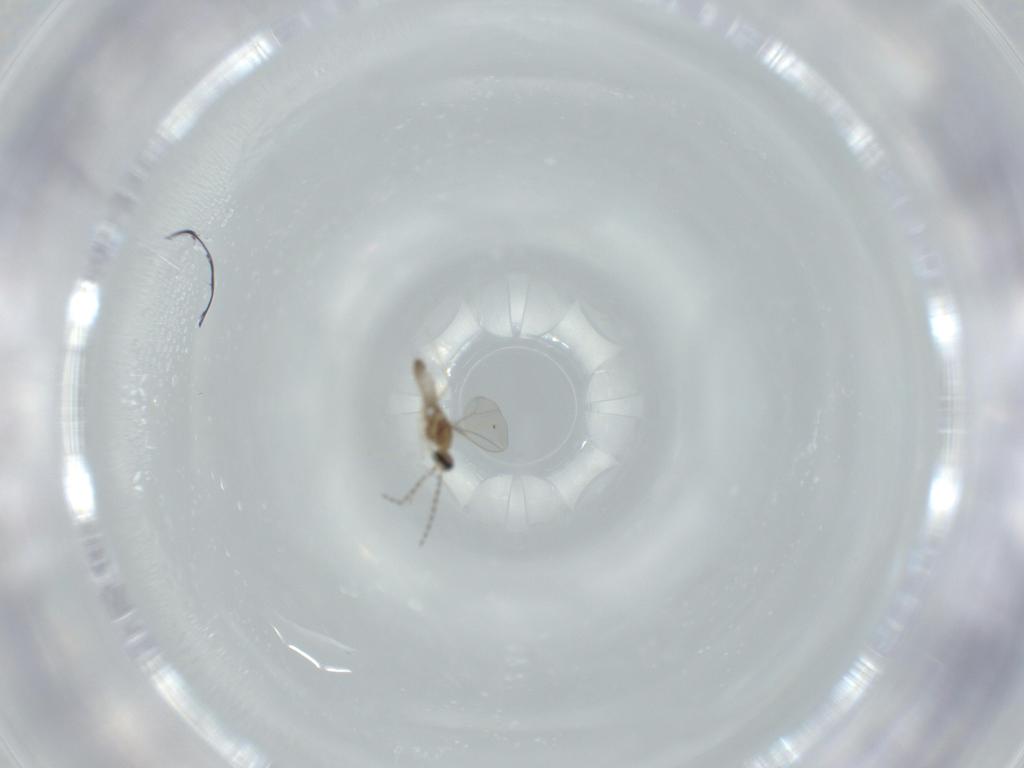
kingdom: Animalia
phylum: Arthropoda
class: Insecta
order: Diptera
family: Cecidomyiidae
